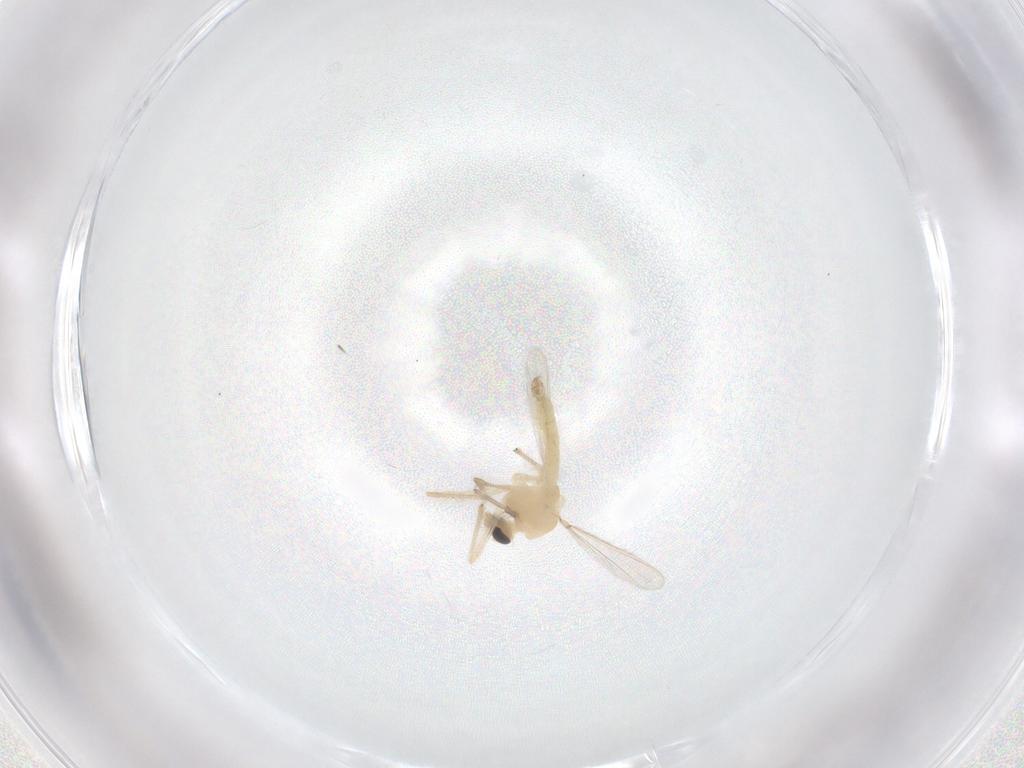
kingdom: Animalia
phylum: Arthropoda
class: Insecta
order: Diptera
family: Chironomidae
